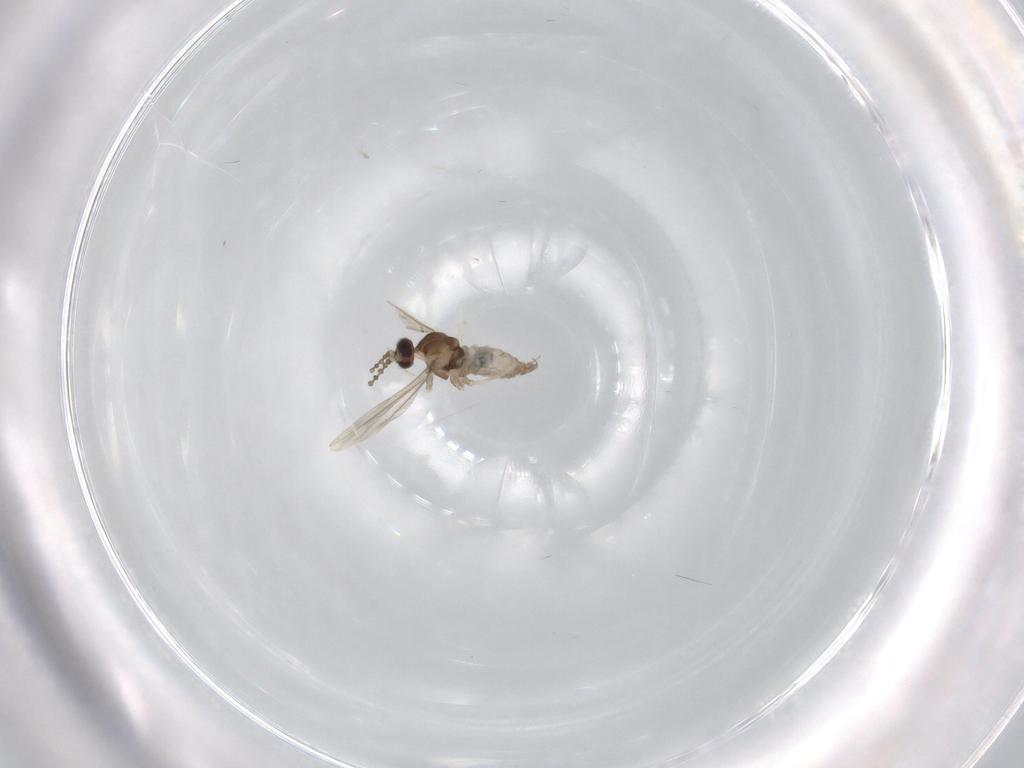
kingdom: Animalia
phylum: Arthropoda
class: Insecta
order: Diptera
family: Cecidomyiidae
